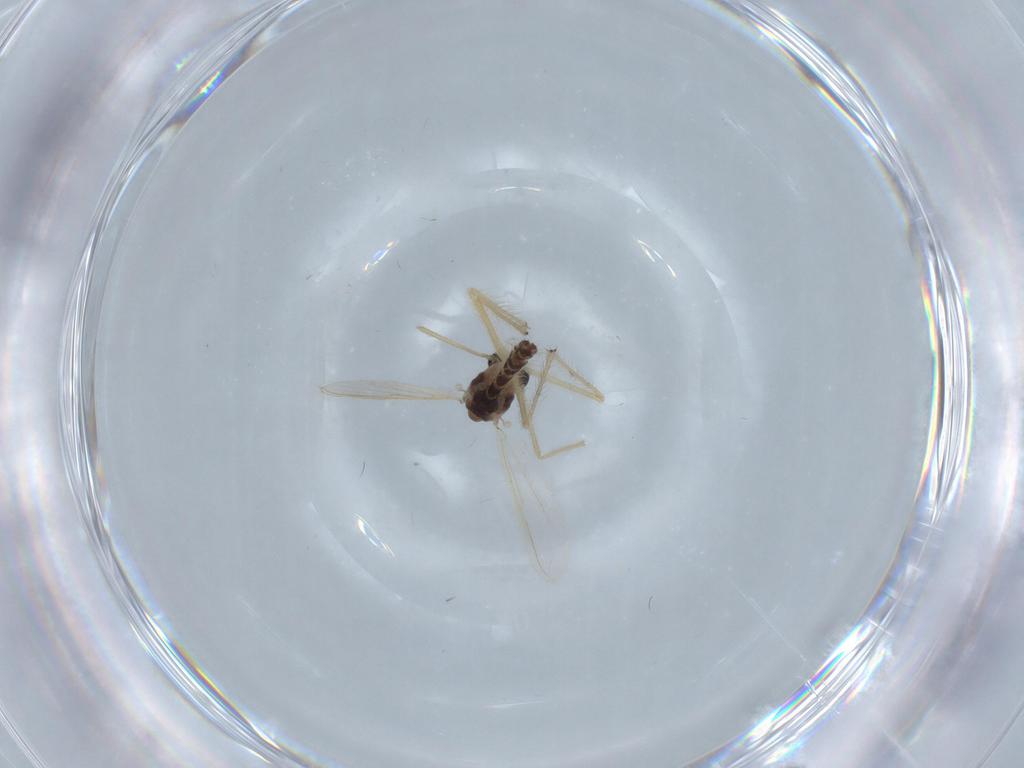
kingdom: Animalia
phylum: Arthropoda
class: Insecta
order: Diptera
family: Chironomidae
